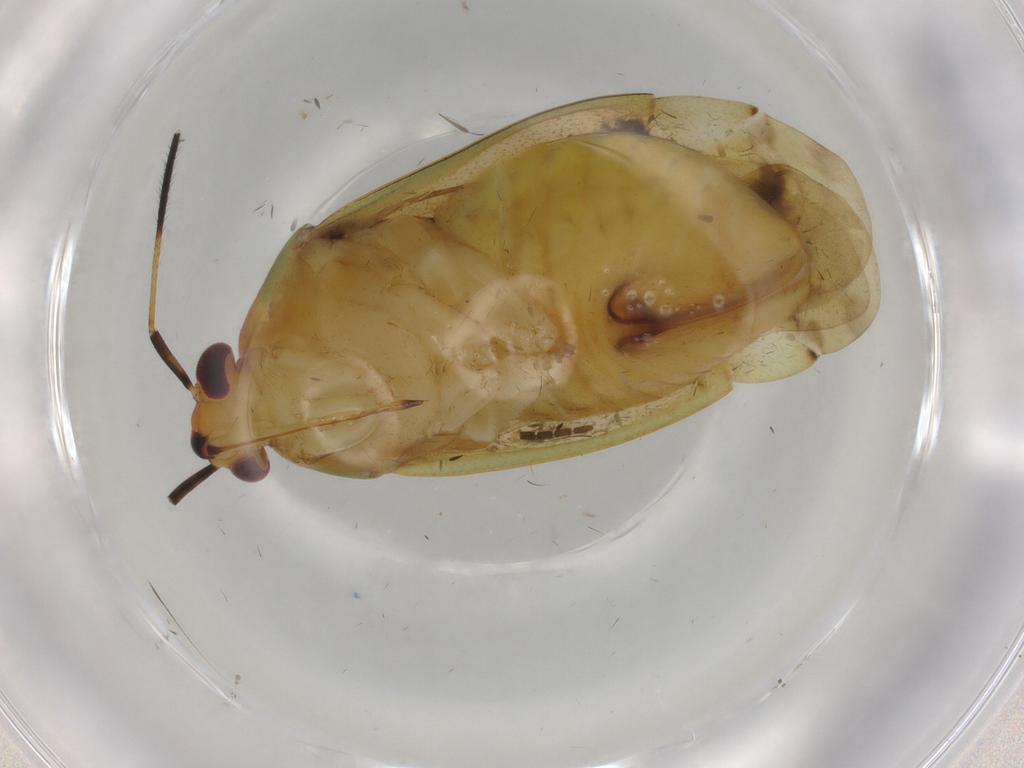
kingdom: Animalia
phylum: Arthropoda
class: Insecta
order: Hemiptera
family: Miridae
